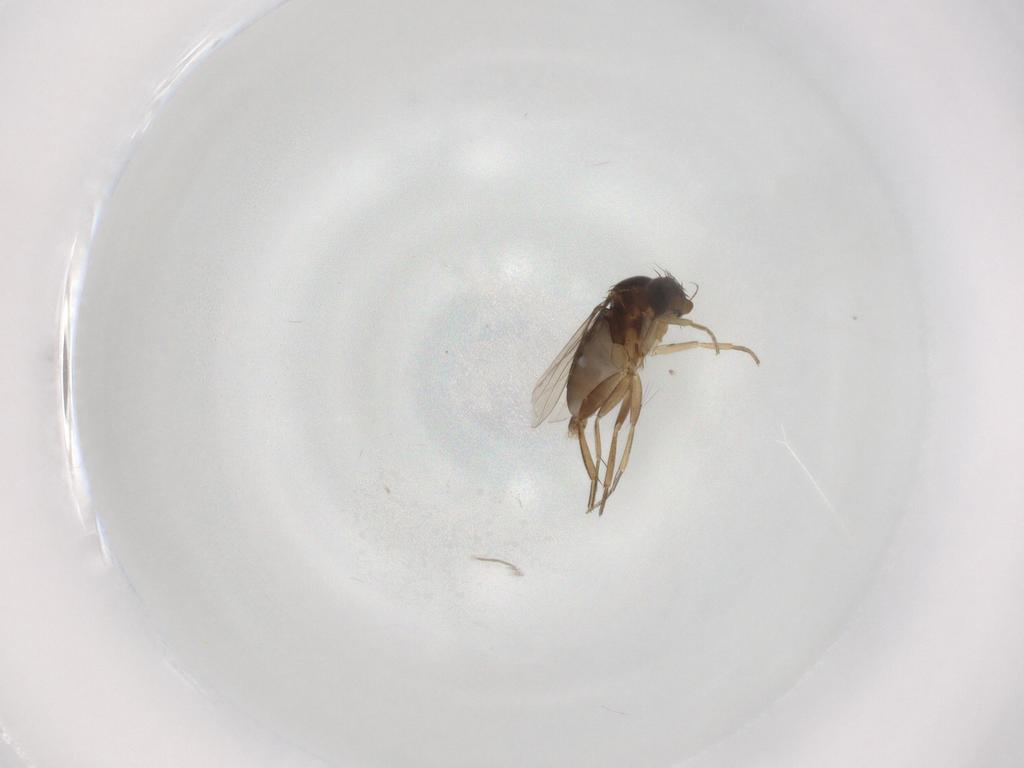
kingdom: Animalia
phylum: Arthropoda
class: Insecta
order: Diptera
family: Phoridae
